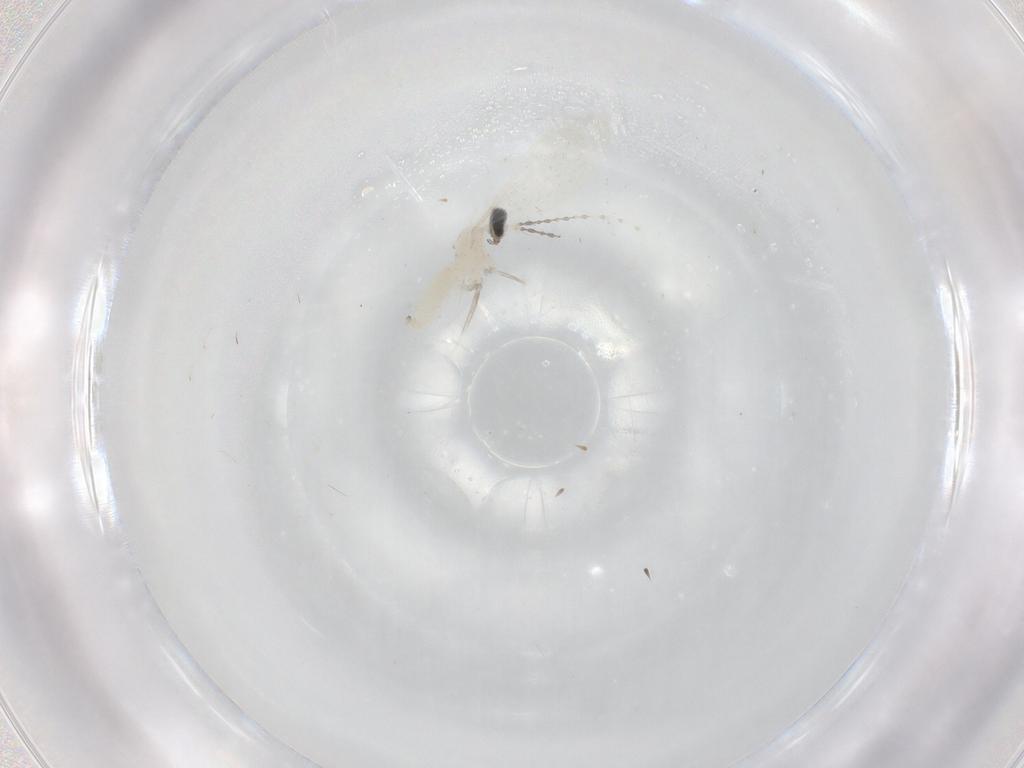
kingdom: Animalia
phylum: Arthropoda
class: Insecta
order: Diptera
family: Cecidomyiidae
